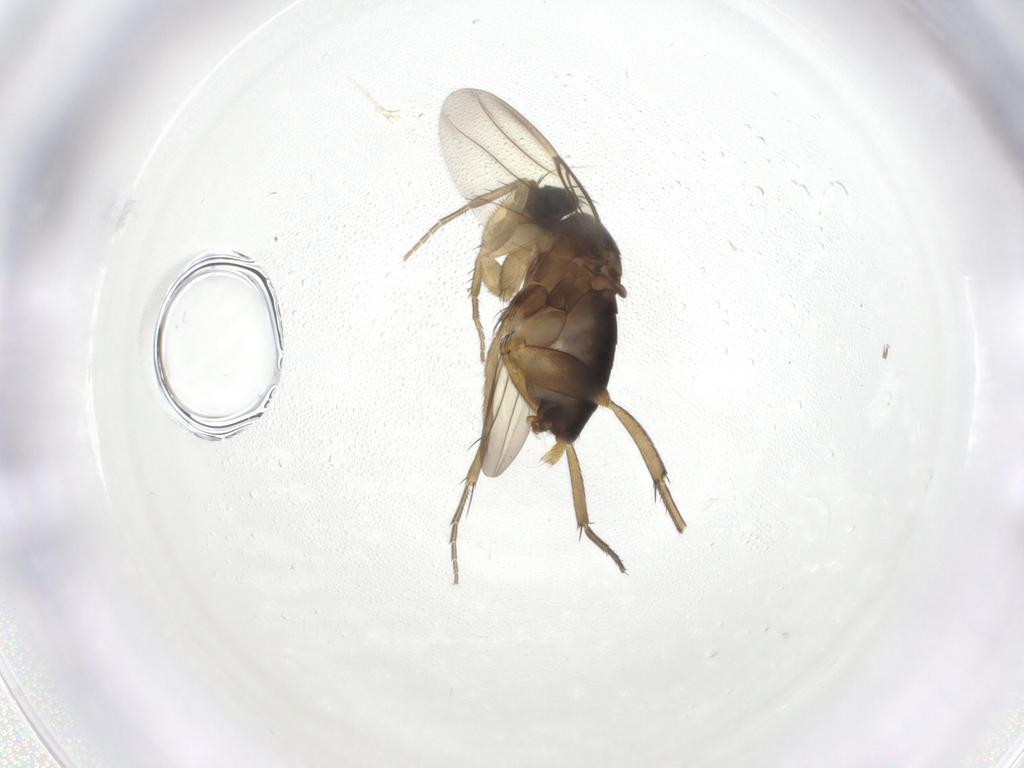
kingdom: Animalia
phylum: Arthropoda
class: Insecta
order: Diptera
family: Phoridae
